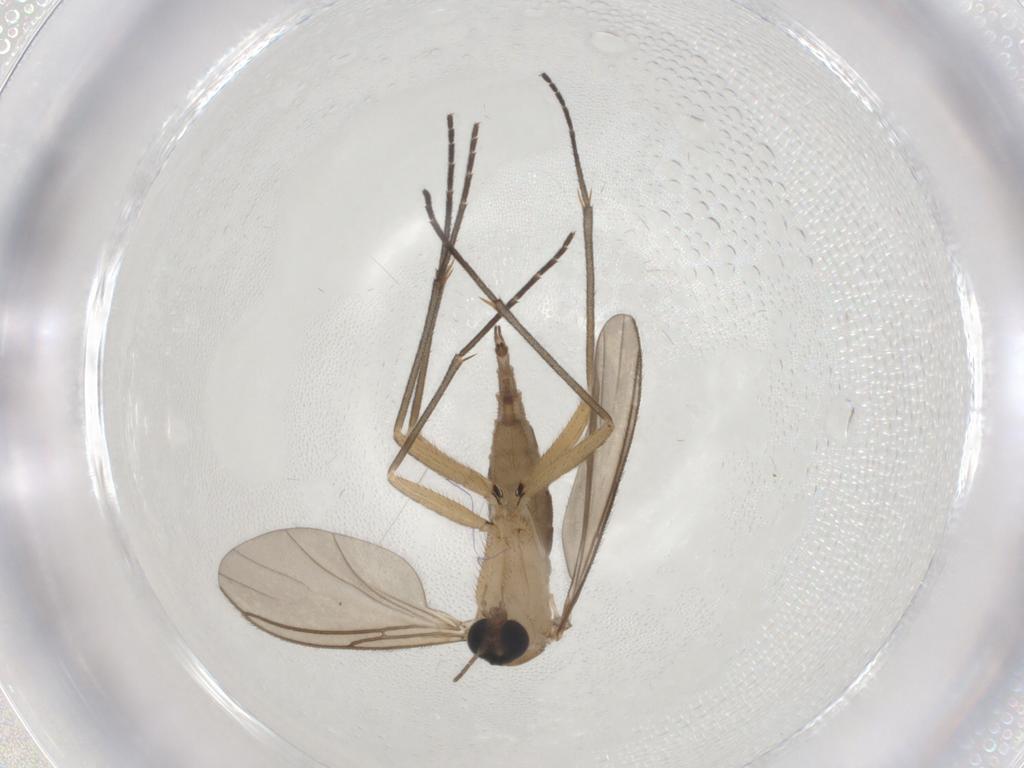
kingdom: Animalia
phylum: Arthropoda
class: Insecta
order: Diptera
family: Sciaridae
